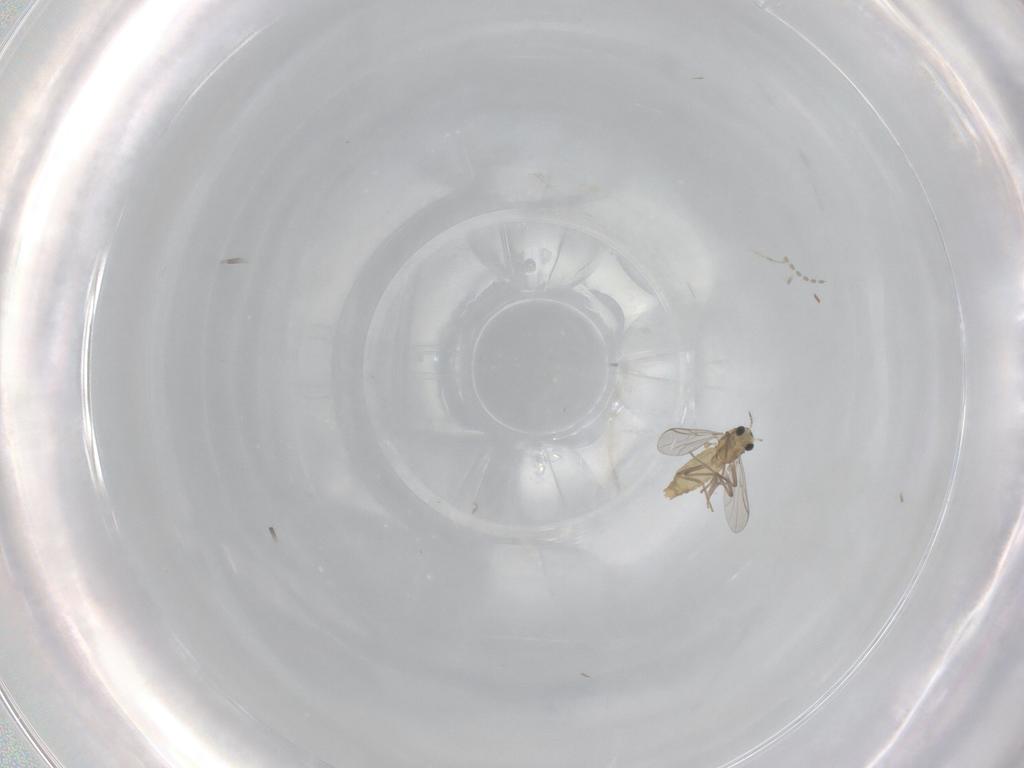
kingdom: Animalia
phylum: Arthropoda
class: Insecta
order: Diptera
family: Chironomidae
